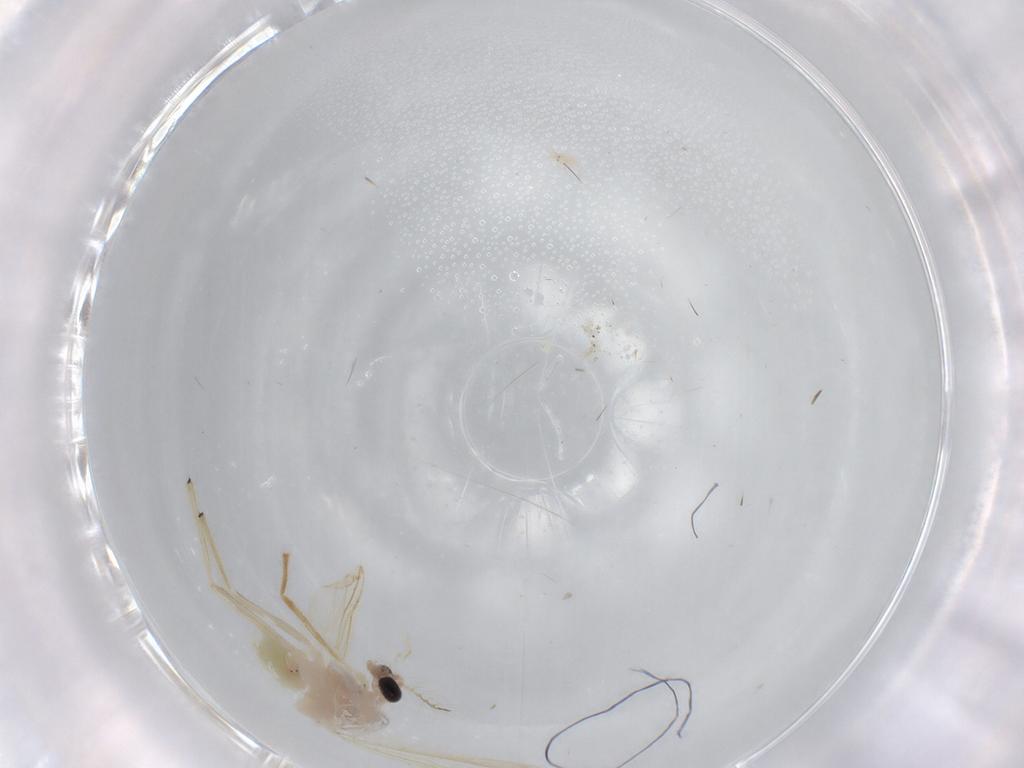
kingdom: Animalia
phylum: Arthropoda
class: Insecta
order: Diptera
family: Chironomidae
